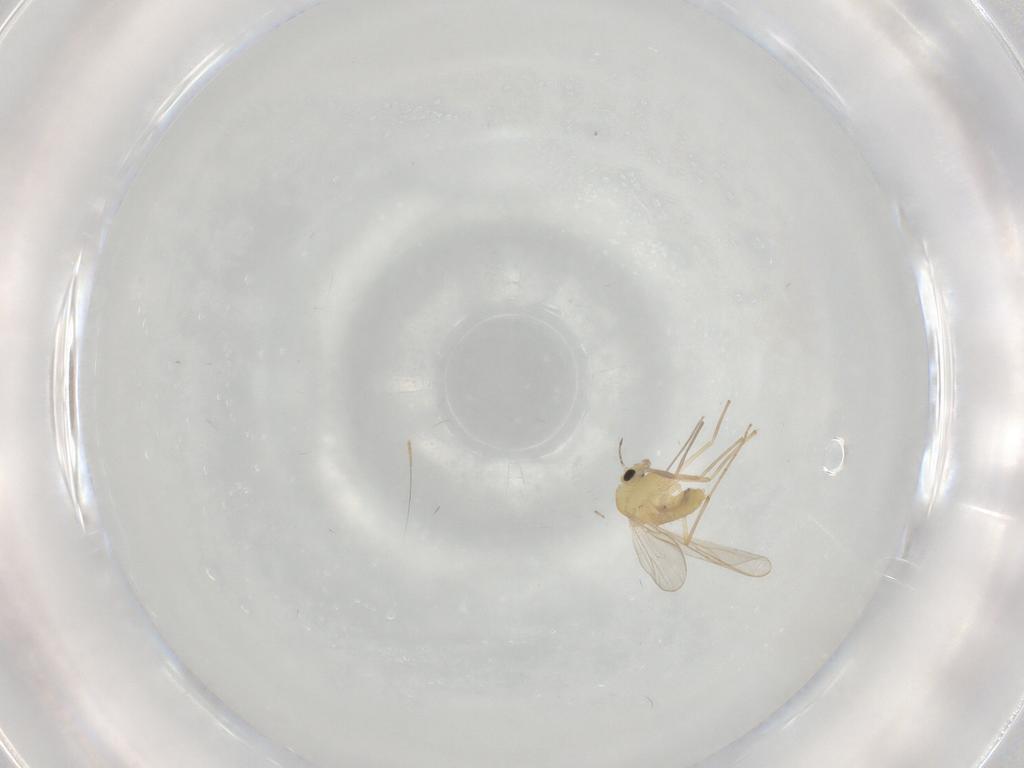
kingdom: Animalia
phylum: Arthropoda
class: Insecta
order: Diptera
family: Chironomidae
